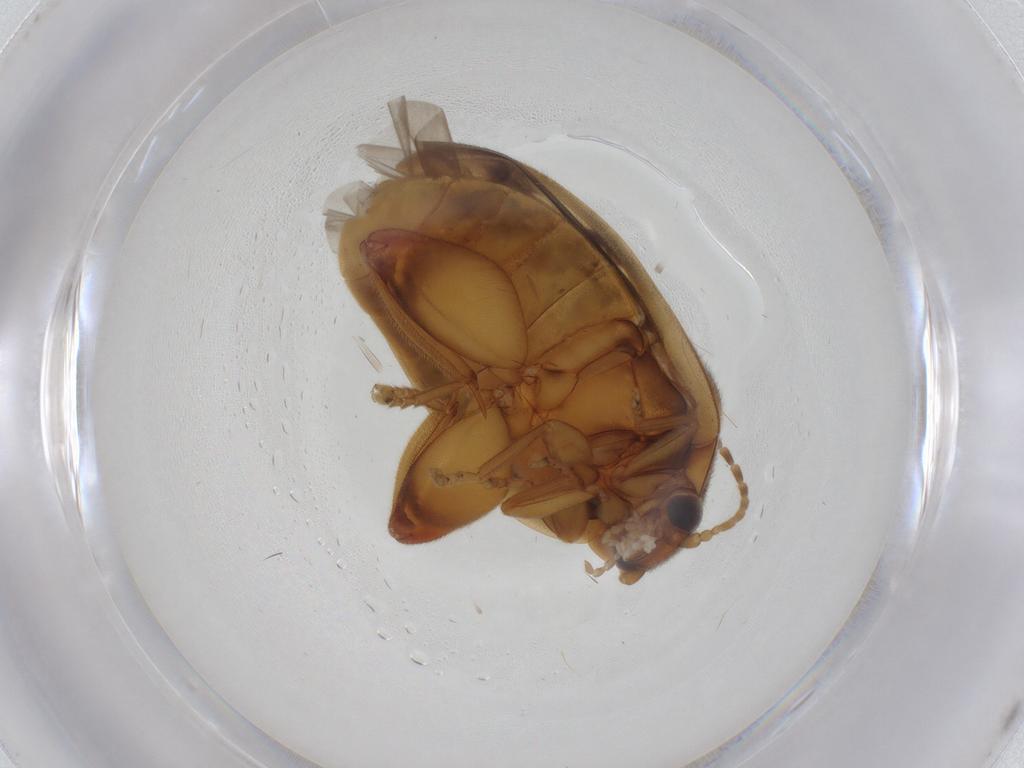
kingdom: Animalia
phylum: Arthropoda
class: Insecta
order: Coleoptera
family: Scirtidae
